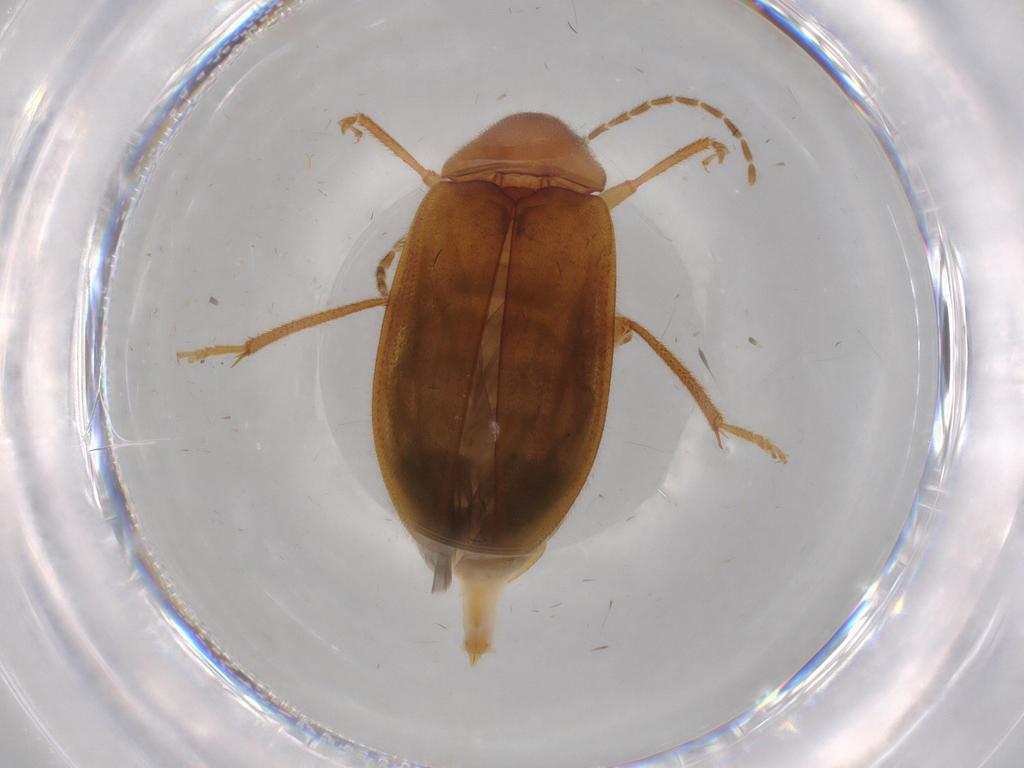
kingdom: Animalia
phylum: Arthropoda
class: Insecta
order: Coleoptera
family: Ptilodactylidae
